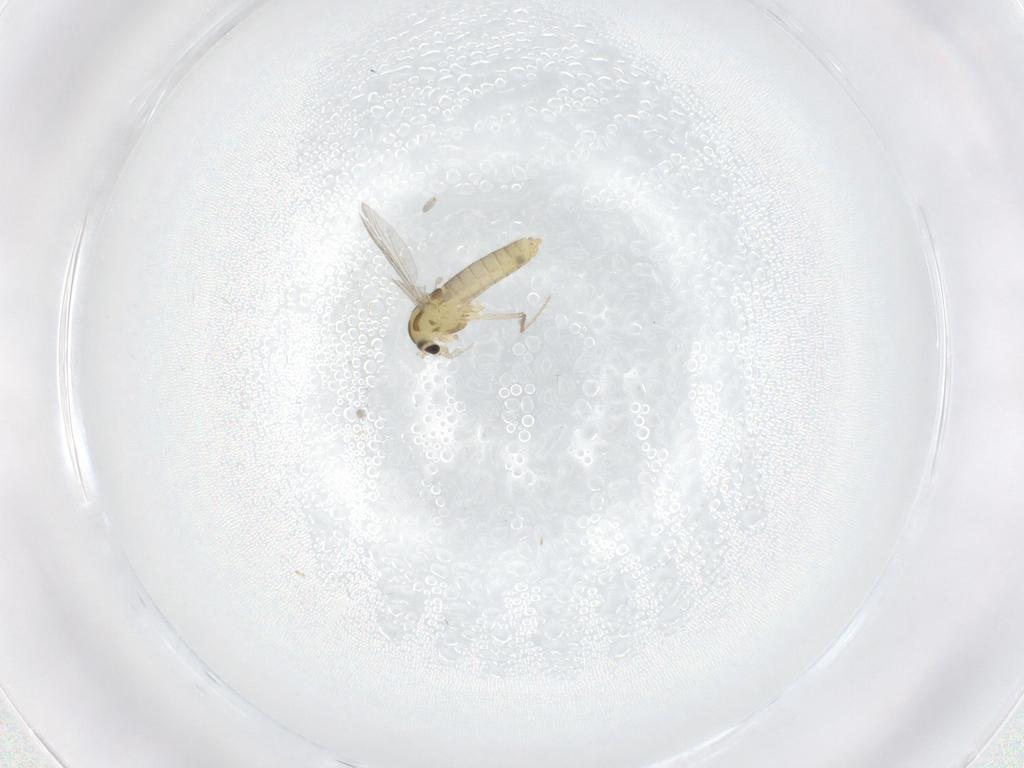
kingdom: Animalia
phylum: Arthropoda
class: Insecta
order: Diptera
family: Chironomidae
